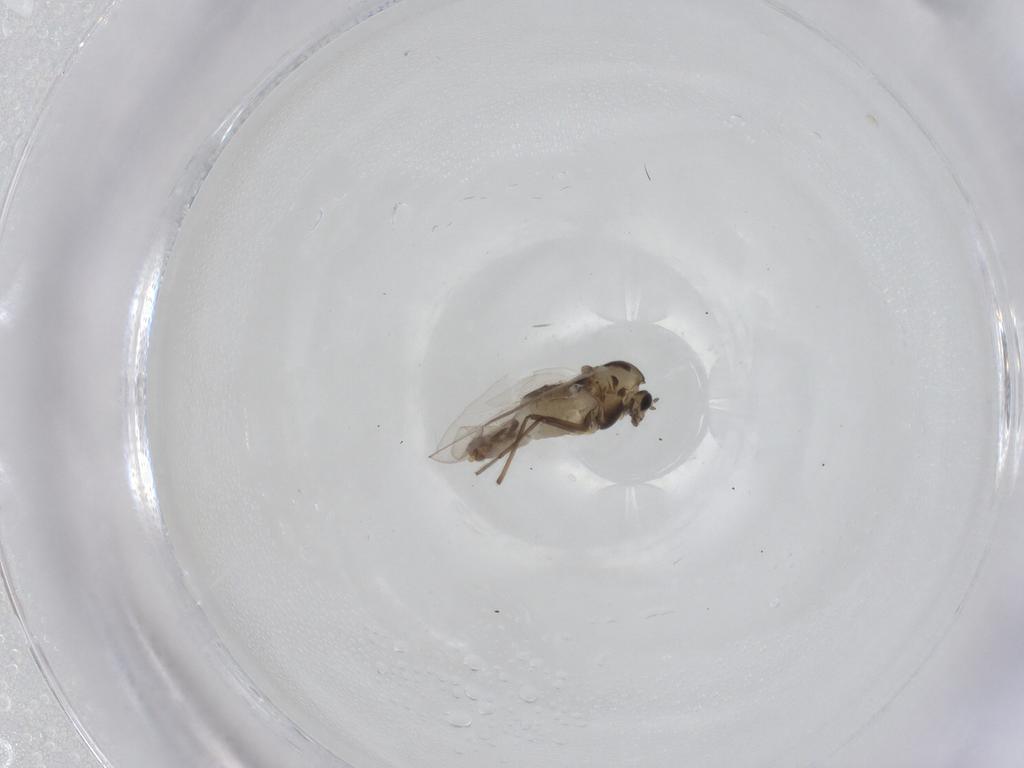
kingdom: Animalia
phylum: Arthropoda
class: Insecta
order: Diptera
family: Chironomidae
